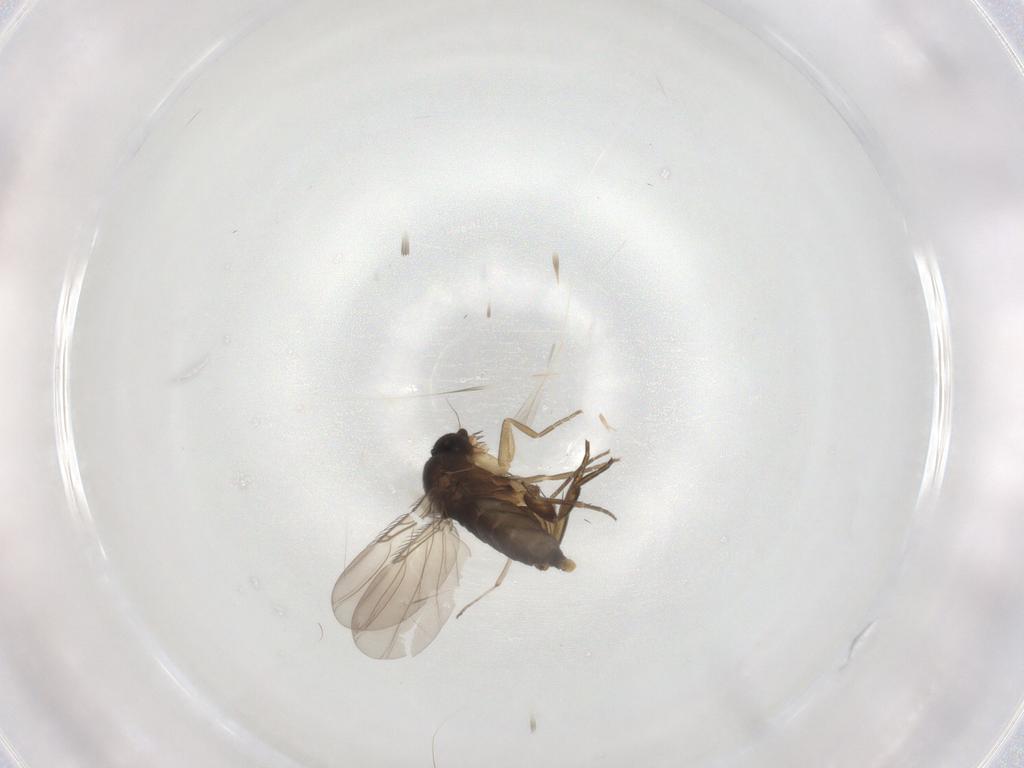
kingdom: Animalia
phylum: Arthropoda
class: Insecta
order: Diptera
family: Phoridae
